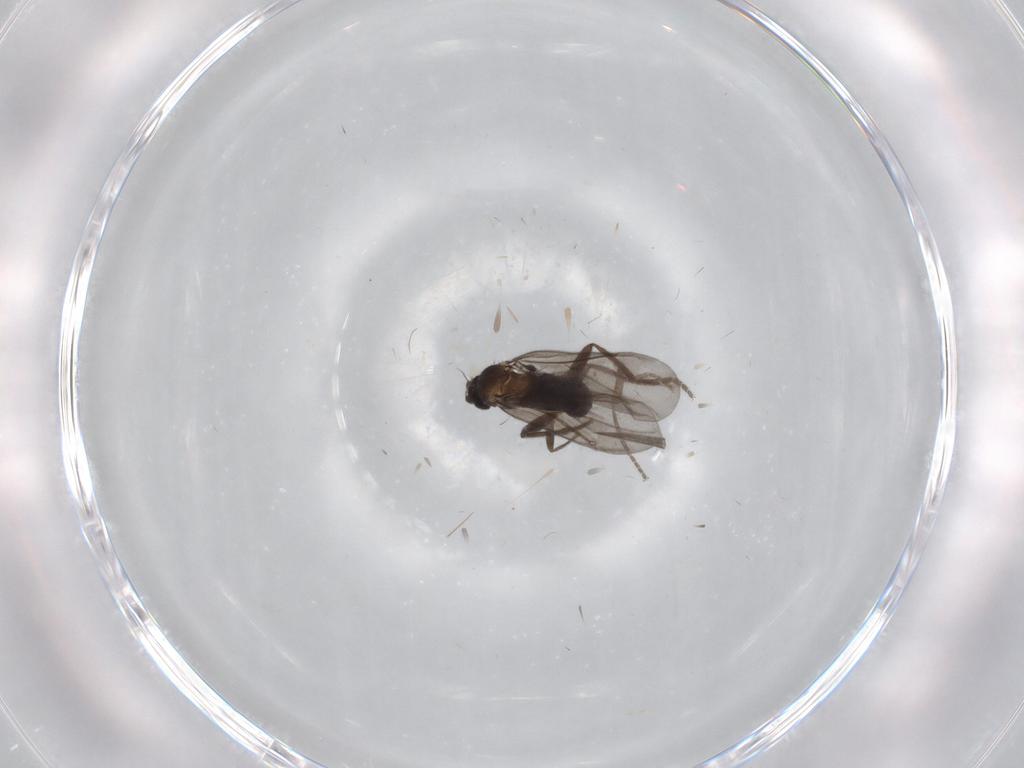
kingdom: Animalia
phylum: Arthropoda
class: Insecta
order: Diptera
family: Phoridae
